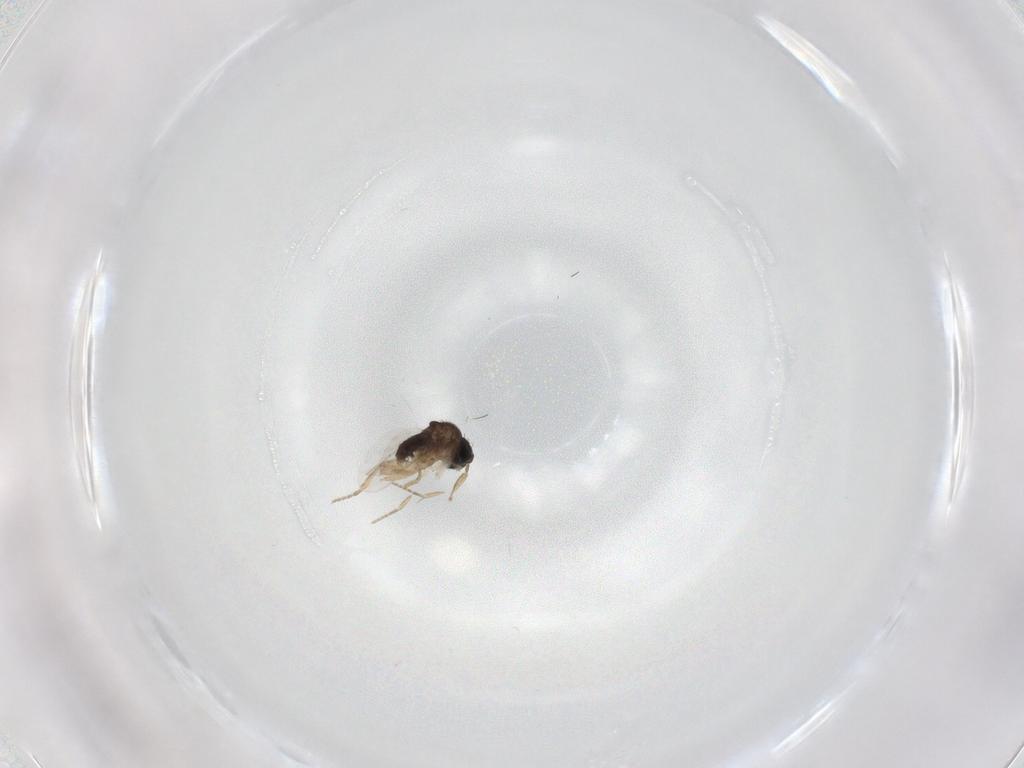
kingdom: Animalia
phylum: Arthropoda
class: Insecta
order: Diptera
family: Phoridae
